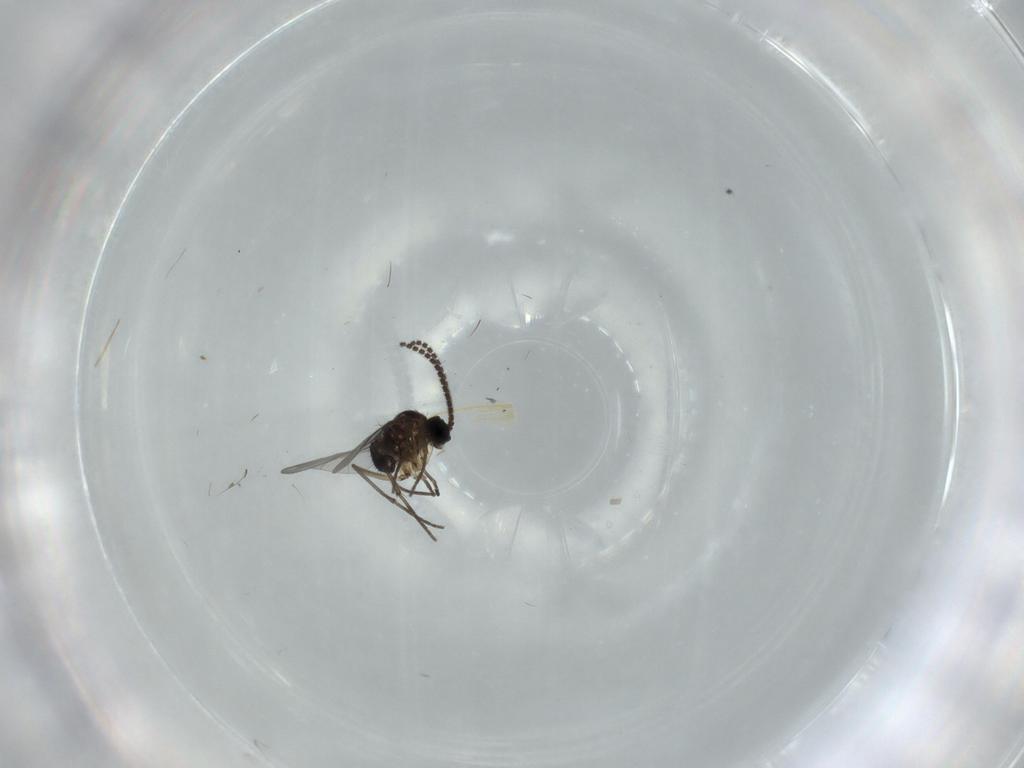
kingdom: Animalia
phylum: Arthropoda
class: Insecta
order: Diptera
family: Sciaridae
